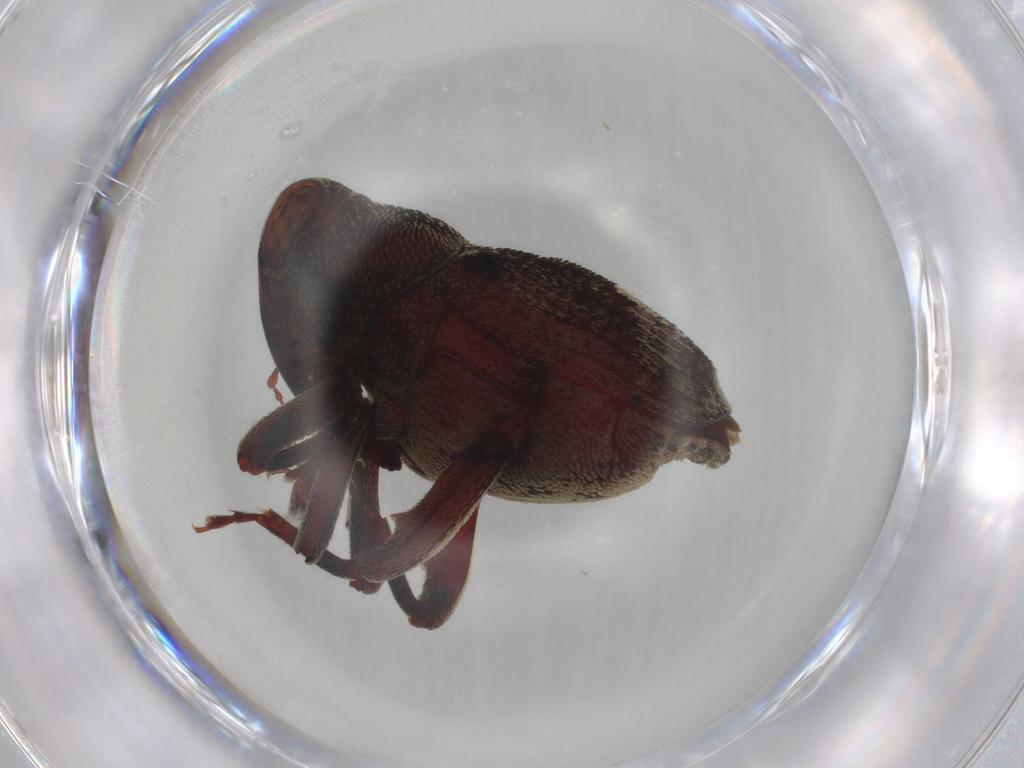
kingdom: Animalia
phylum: Arthropoda
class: Insecta
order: Coleoptera
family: Curculionidae
